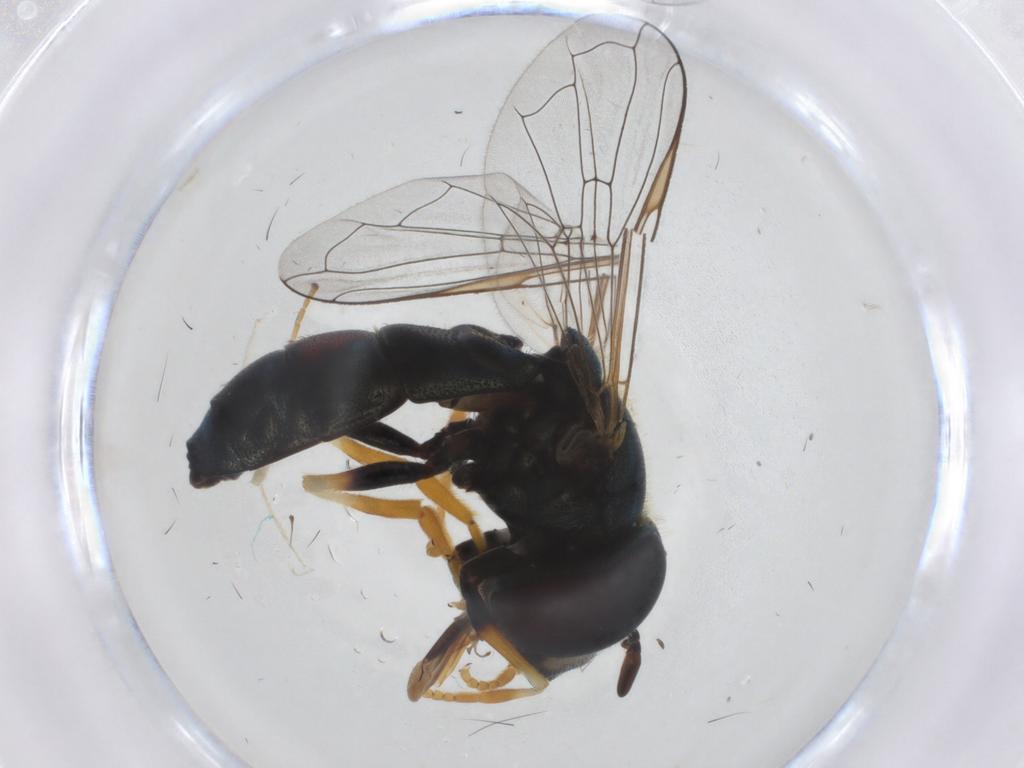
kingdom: Animalia
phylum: Arthropoda
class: Insecta
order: Diptera
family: Syrphidae
